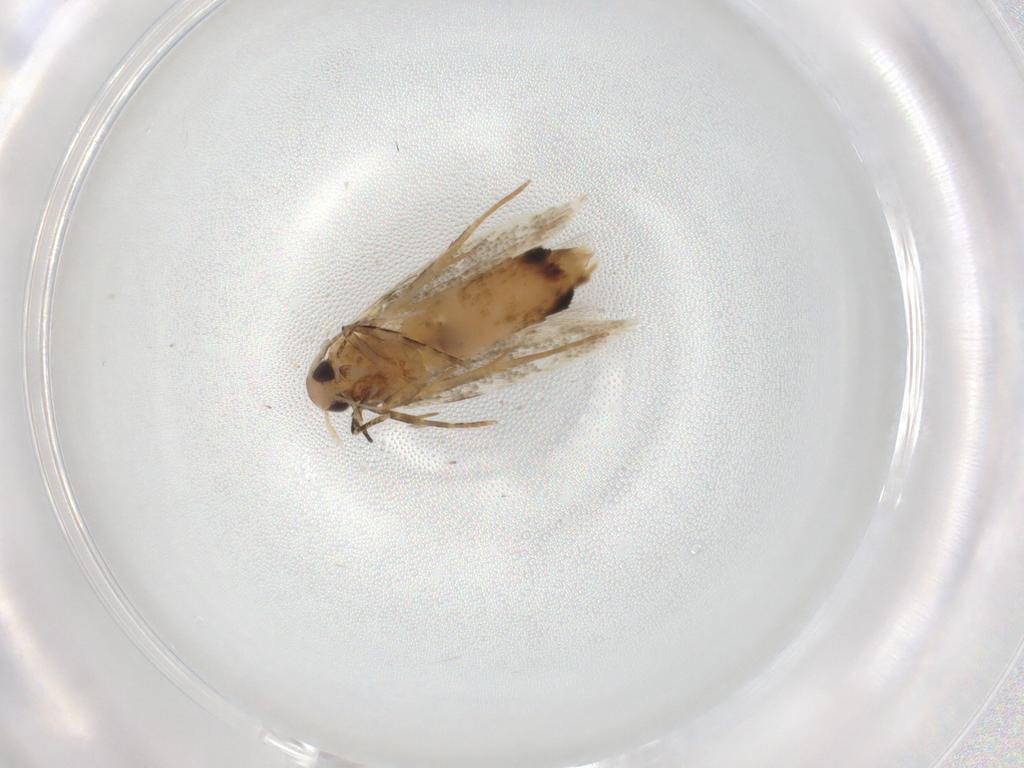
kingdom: Animalia
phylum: Arthropoda
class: Insecta
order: Lepidoptera
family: Cosmopterigidae
